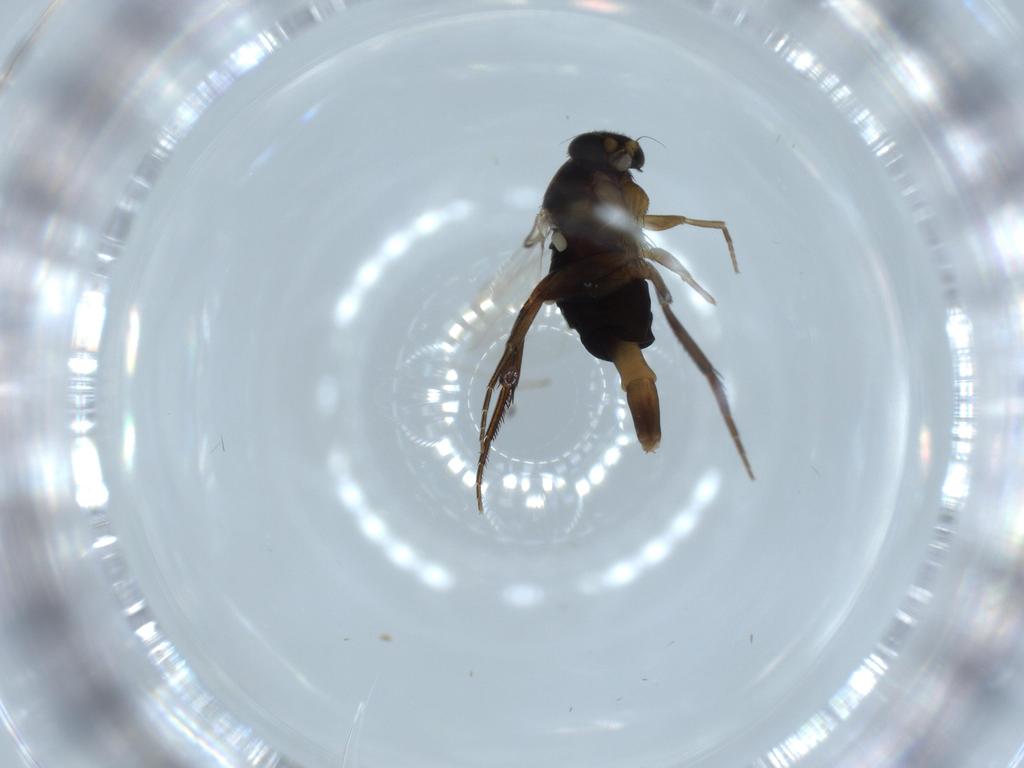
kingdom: Animalia
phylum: Arthropoda
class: Insecta
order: Diptera
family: Phoridae
